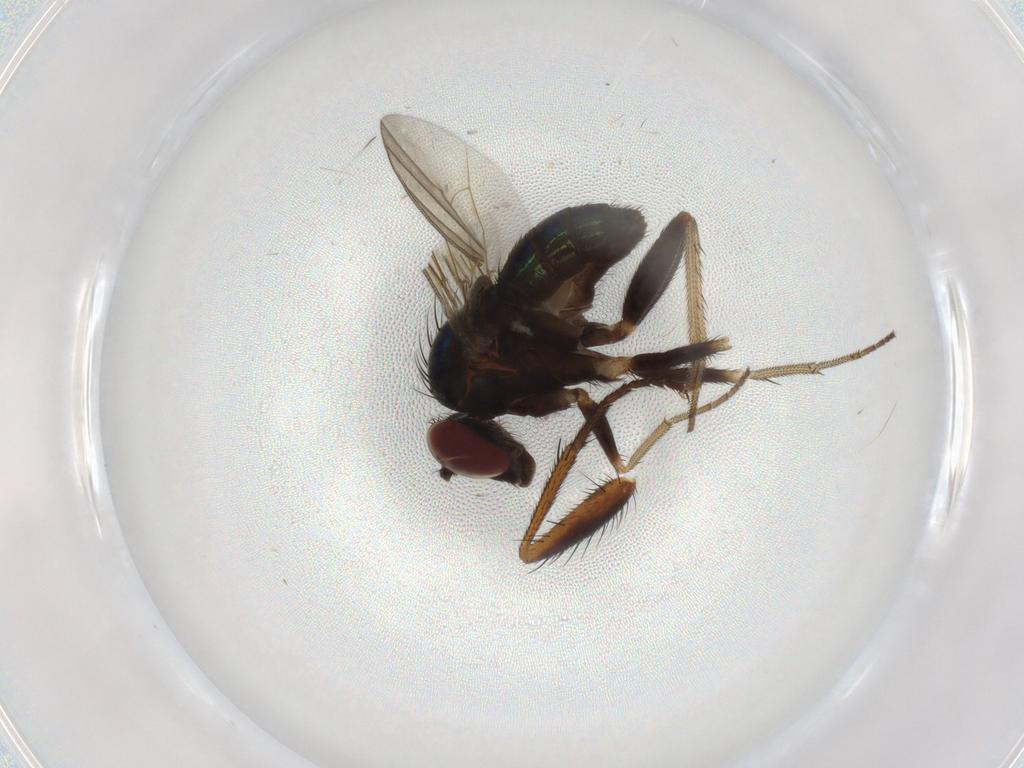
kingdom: Animalia
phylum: Arthropoda
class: Insecta
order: Diptera
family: Dolichopodidae
